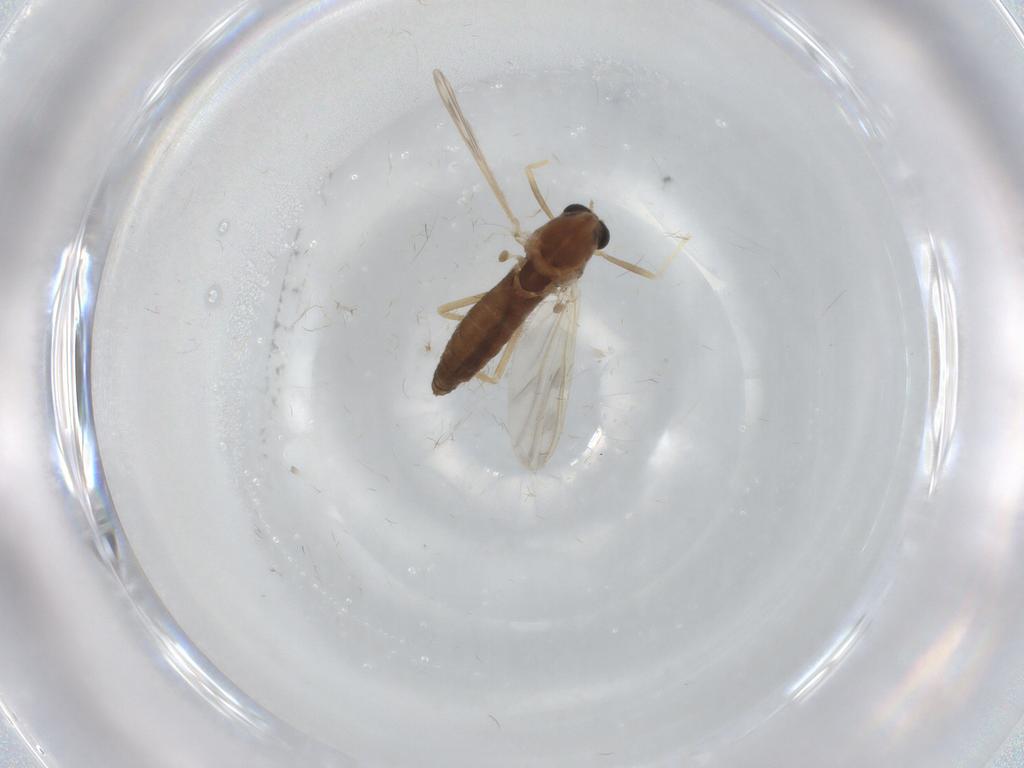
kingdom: Animalia
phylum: Arthropoda
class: Insecta
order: Diptera
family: Chironomidae
